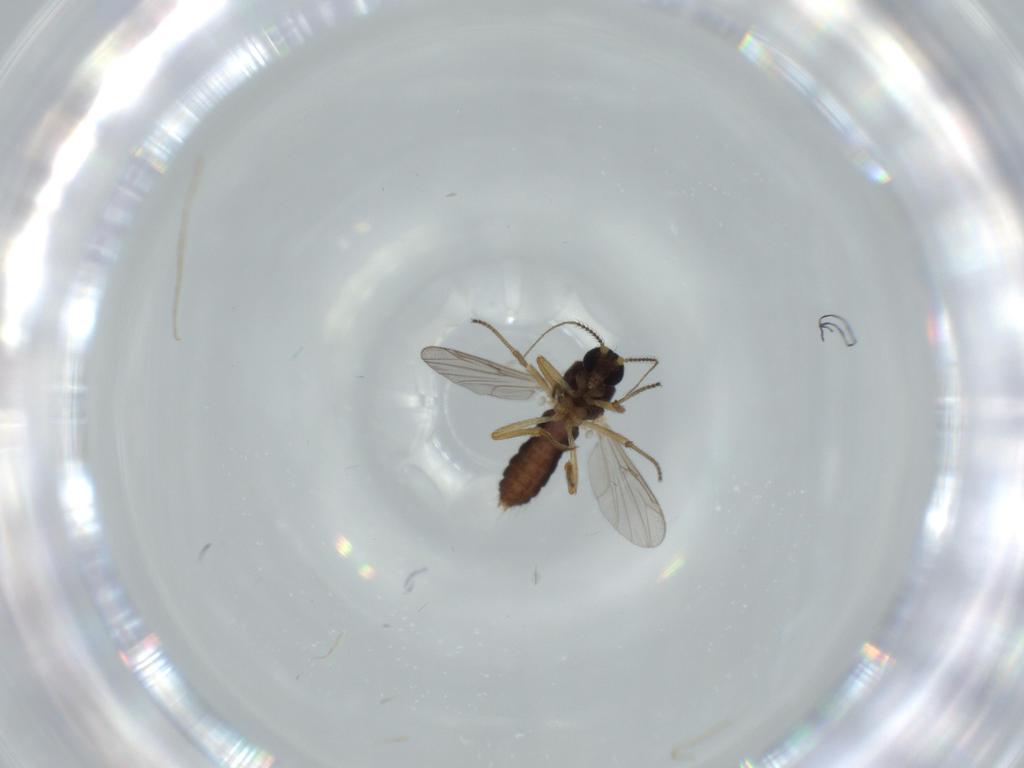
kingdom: Animalia
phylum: Arthropoda
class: Insecta
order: Diptera
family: Ceratopogonidae
